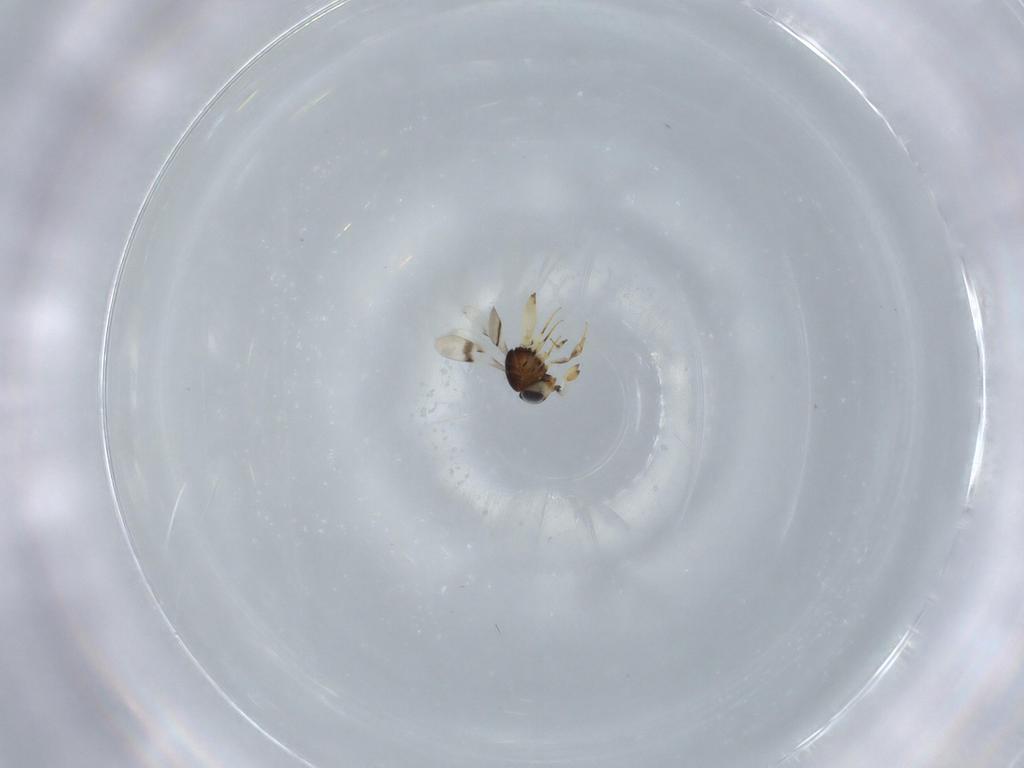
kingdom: Animalia
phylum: Arthropoda
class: Insecta
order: Hymenoptera
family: Scelionidae
